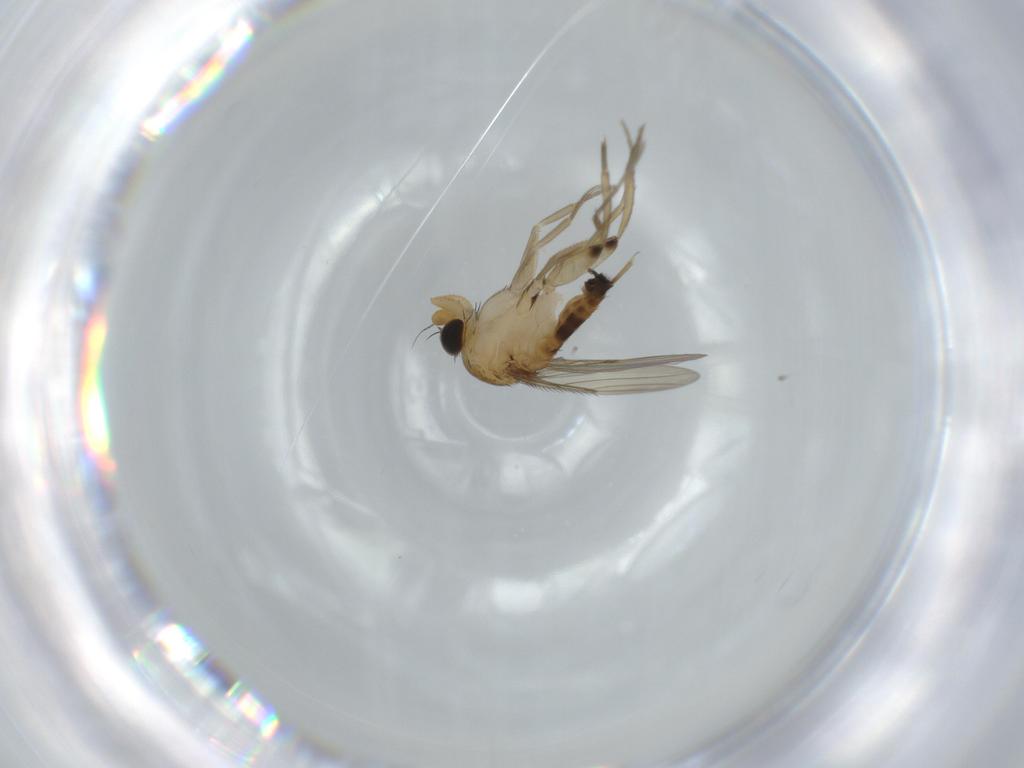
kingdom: Animalia
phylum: Arthropoda
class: Insecta
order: Diptera
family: Phoridae
